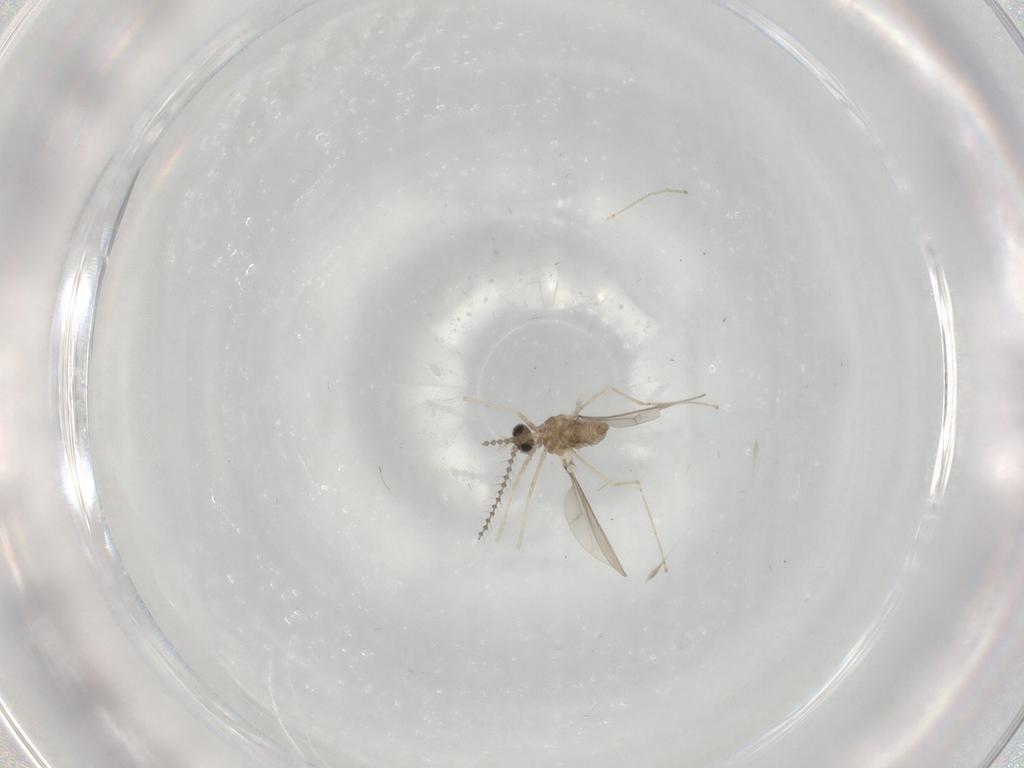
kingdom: Animalia
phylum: Arthropoda
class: Insecta
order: Diptera
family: Cecidomyiidae
